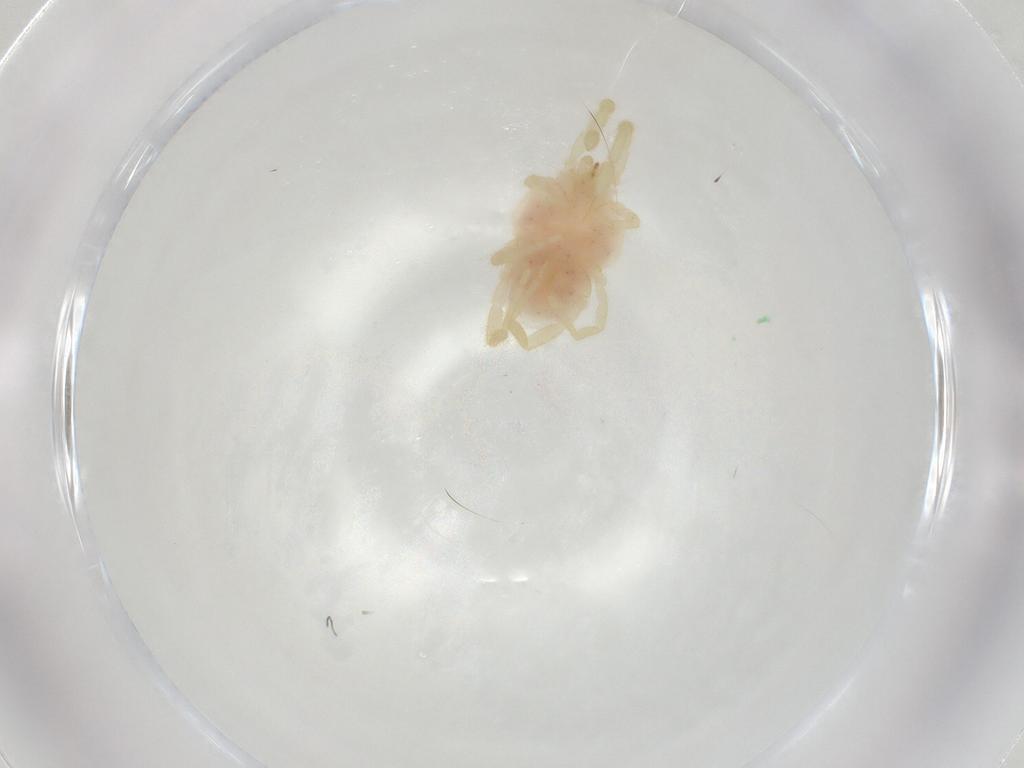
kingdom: Animalia
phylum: Arthropoda
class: Arachnida
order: Trombidiformes
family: Erythraeidae
